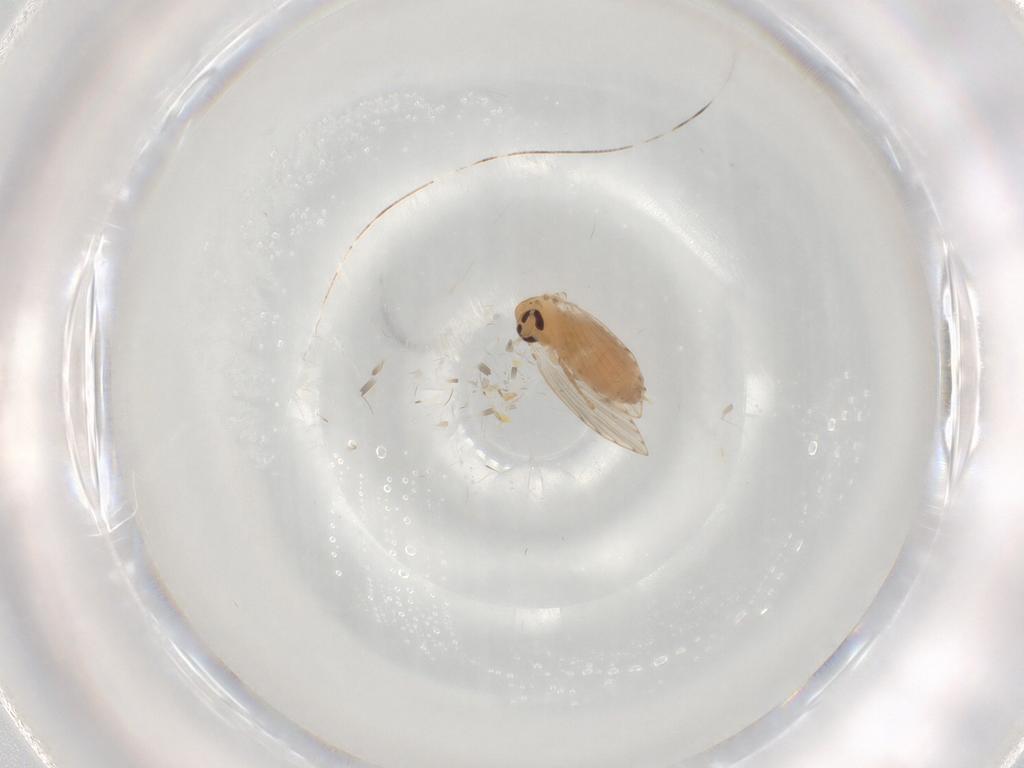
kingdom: Animalia
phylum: Arthropoda
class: Insecta
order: Diptera
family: Psychodidae
